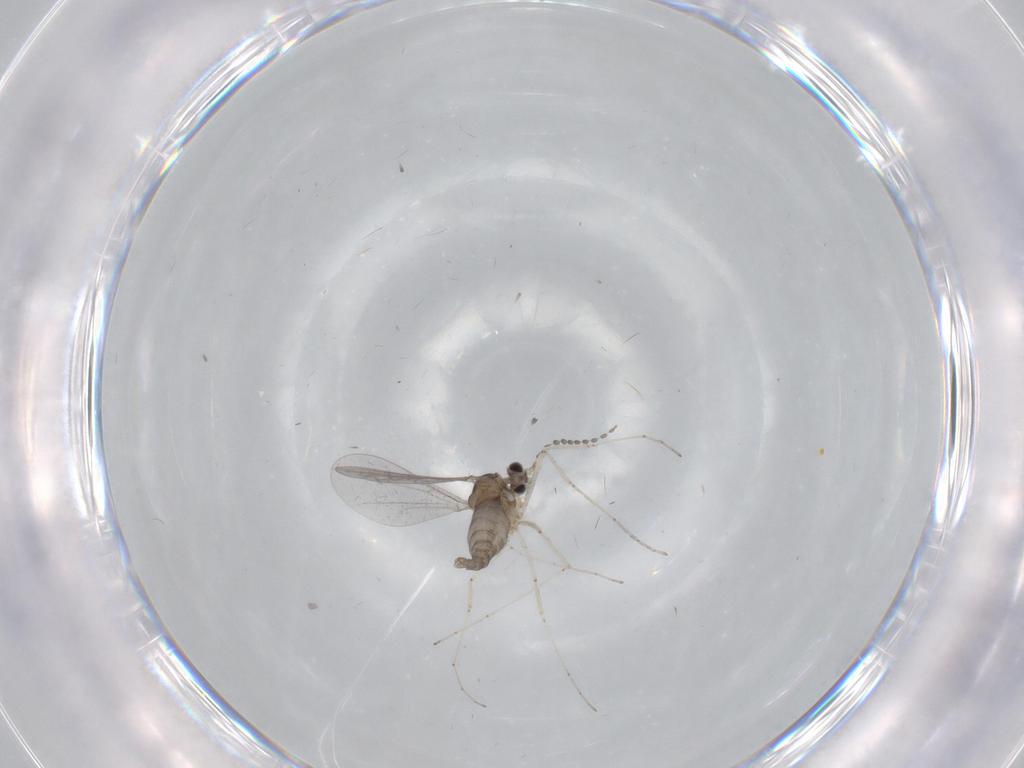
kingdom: Animalia
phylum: Arthropoda
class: Insecta
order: Diptera
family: Cecidomyiidae
